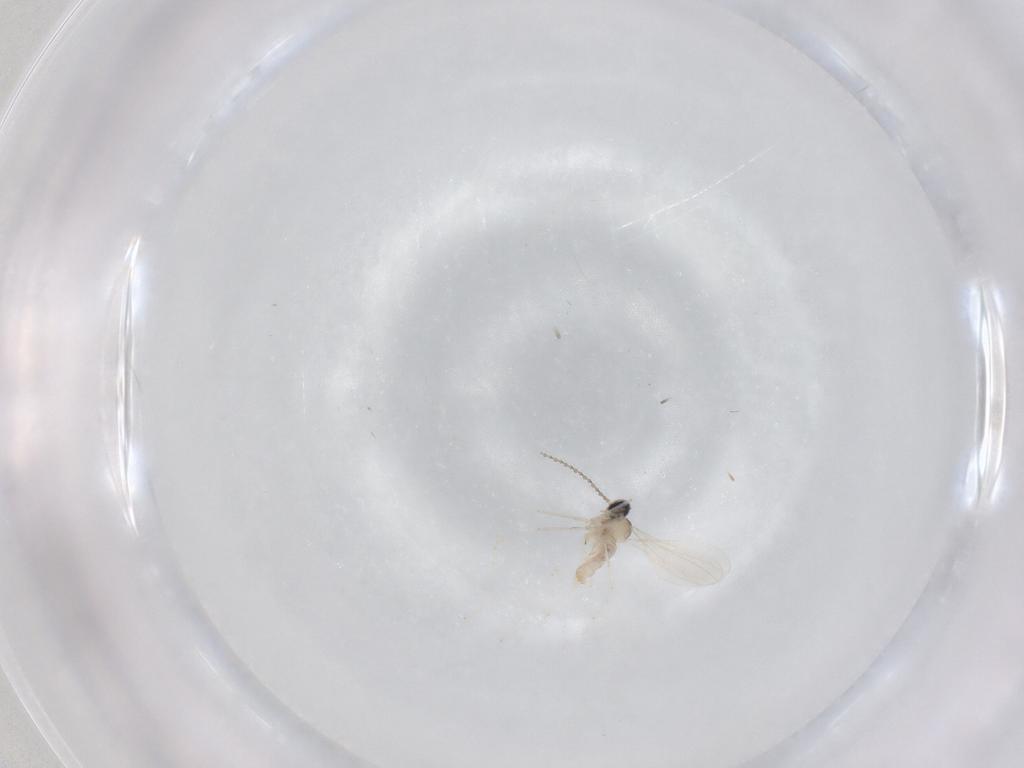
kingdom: Animalia
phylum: Arthropoda
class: Insecta
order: Diptera
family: Cecidomyiidae
